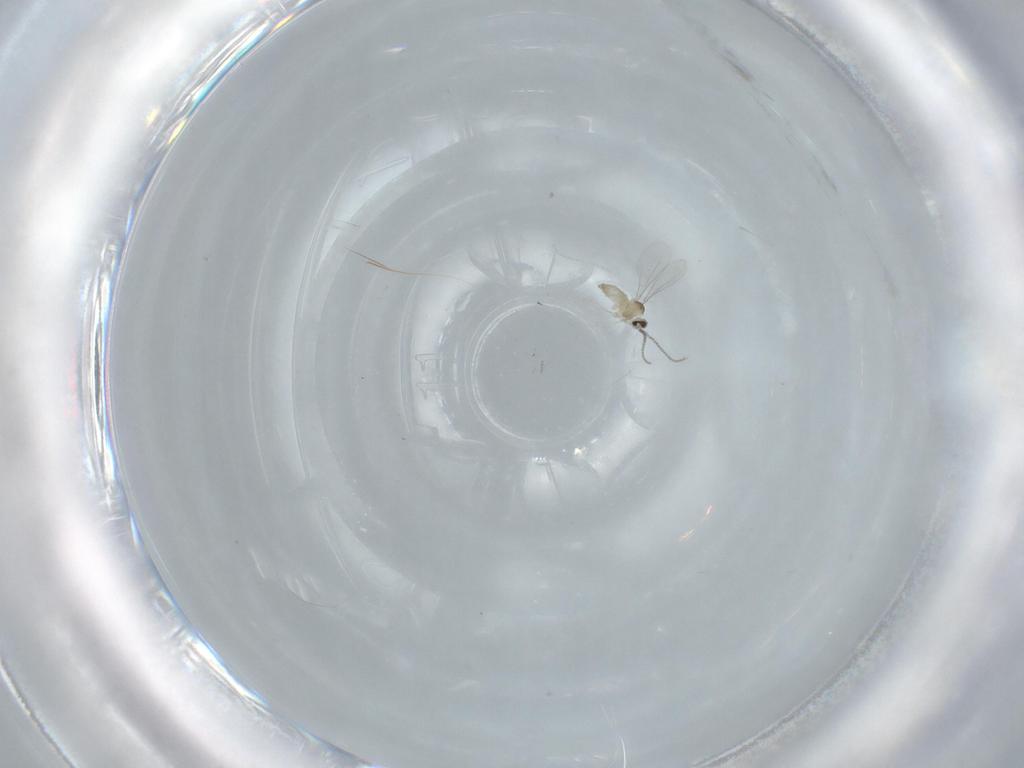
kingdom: Animalia
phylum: Arthropoda
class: Insecta
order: Diptera
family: Cecidomyiidae
